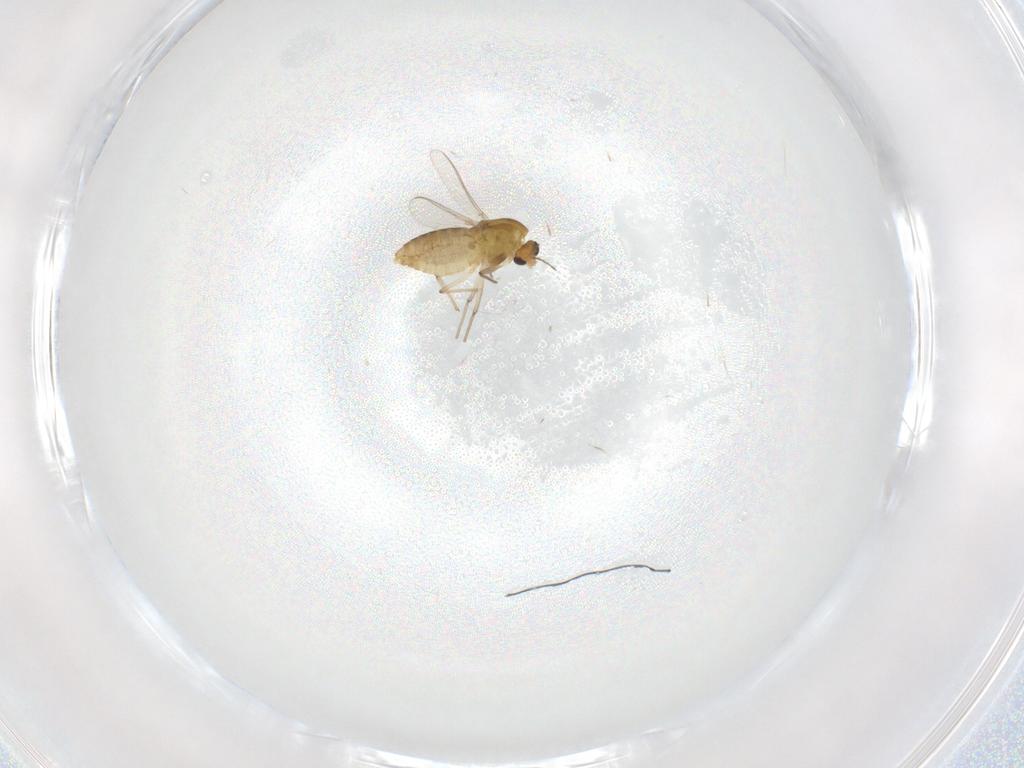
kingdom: Animalia
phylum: Arthropoda
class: Insecta
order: Diptera
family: Chironomidae
